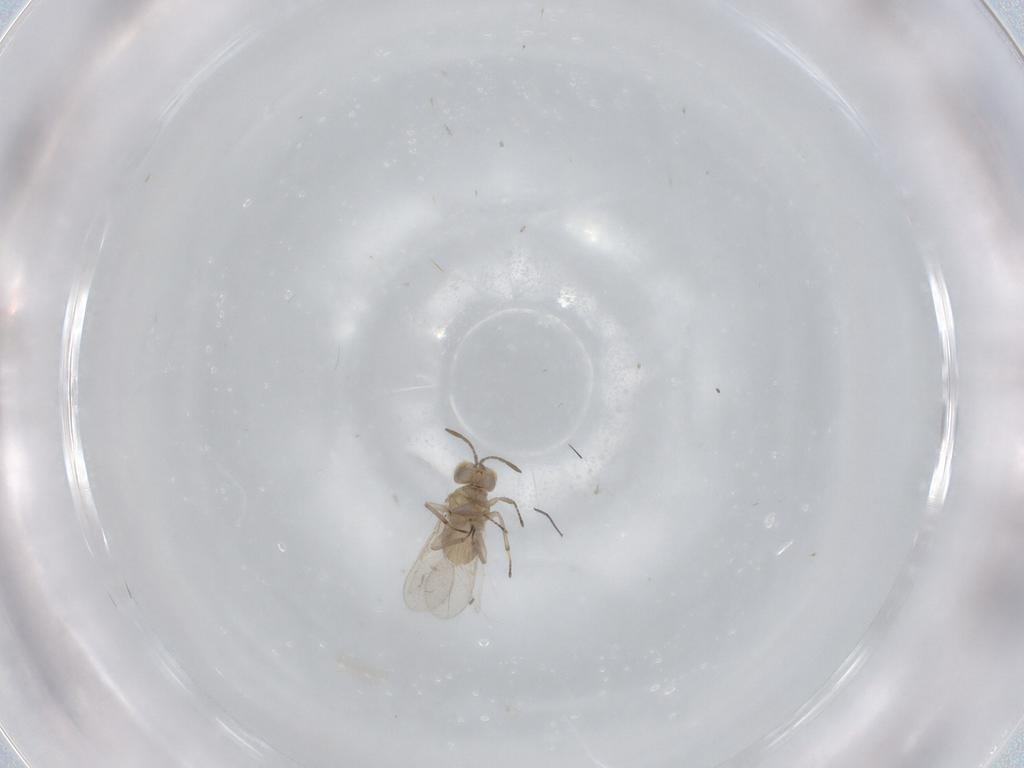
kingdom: Animalia
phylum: Arthropoda
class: Insecta
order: Hymenoptera
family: Aphelinidae
